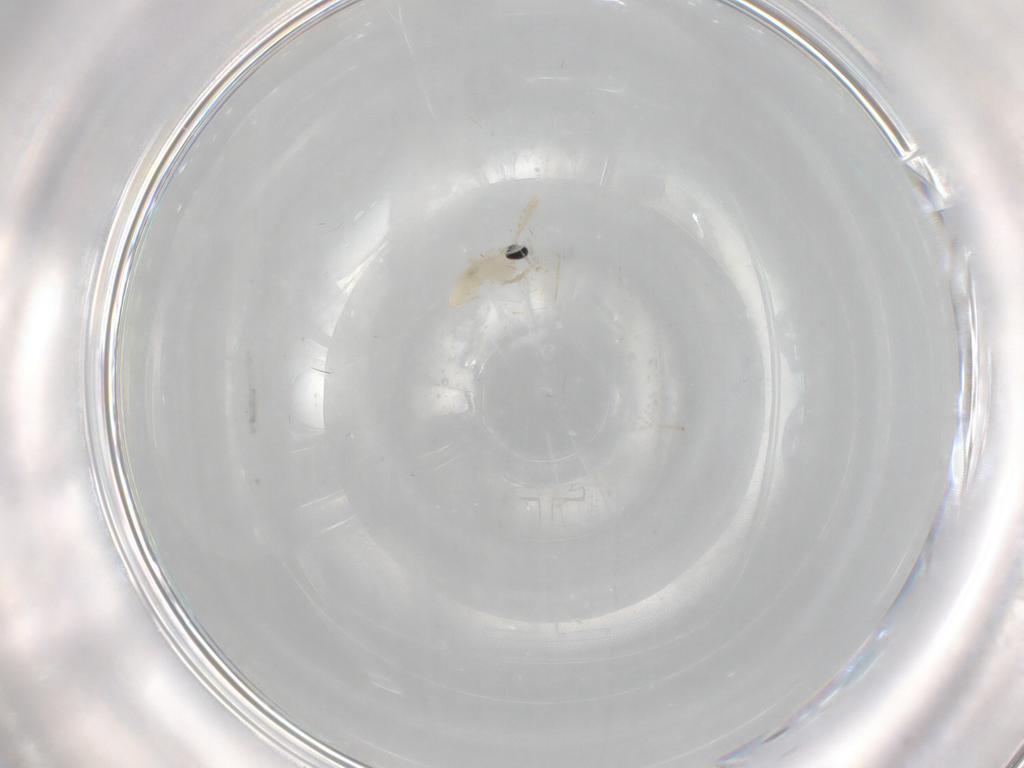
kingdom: Animalia
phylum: Arthropoda
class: Insecta
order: Diptera
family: Cecidomyiidae
